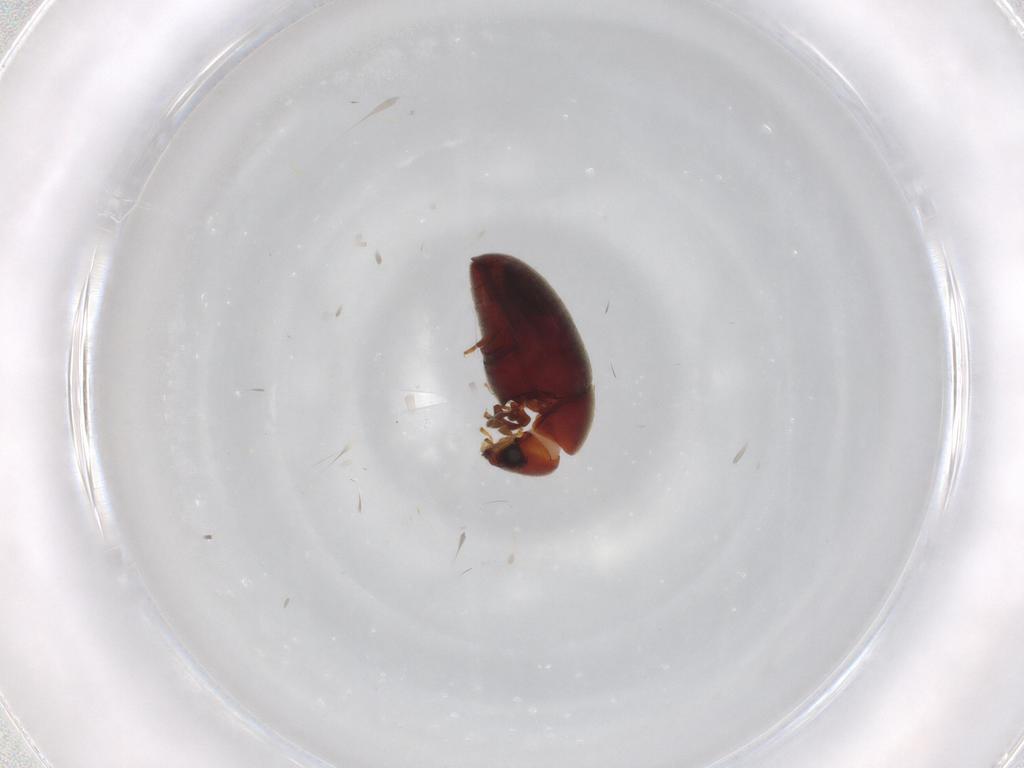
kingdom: Animalia
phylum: Arthropoda
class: Insecta
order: Coleoptera
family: Ptinidae
